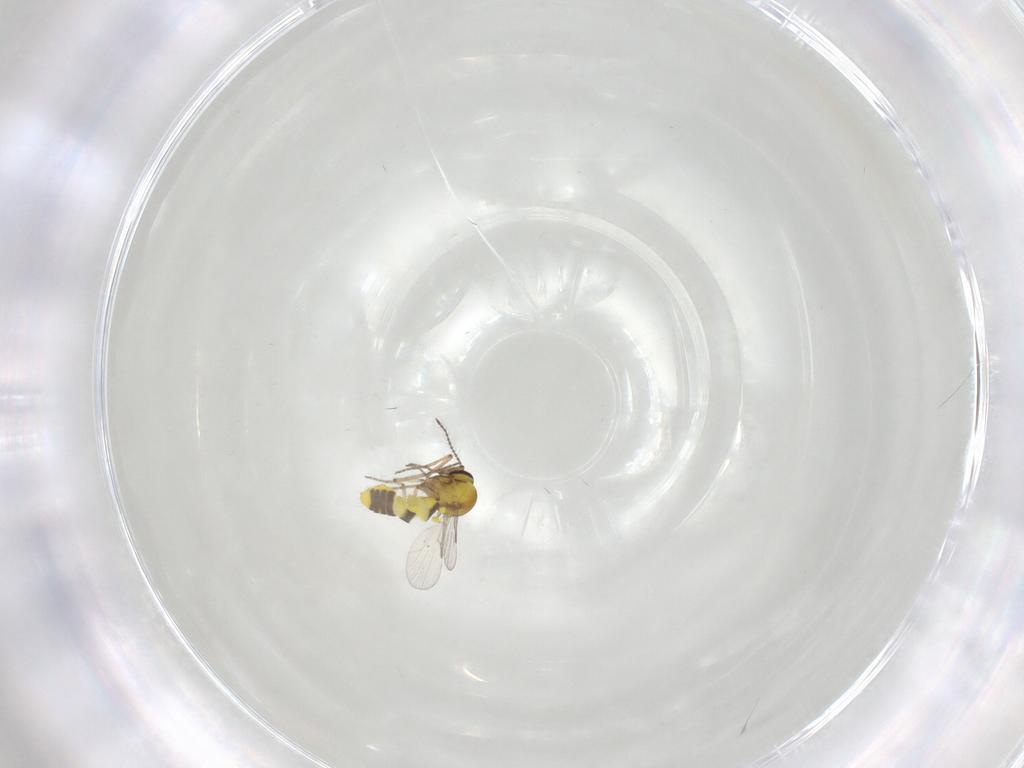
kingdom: Animalia
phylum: Arthropoda
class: Insecta
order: Diptera
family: Ceratopogonidae
